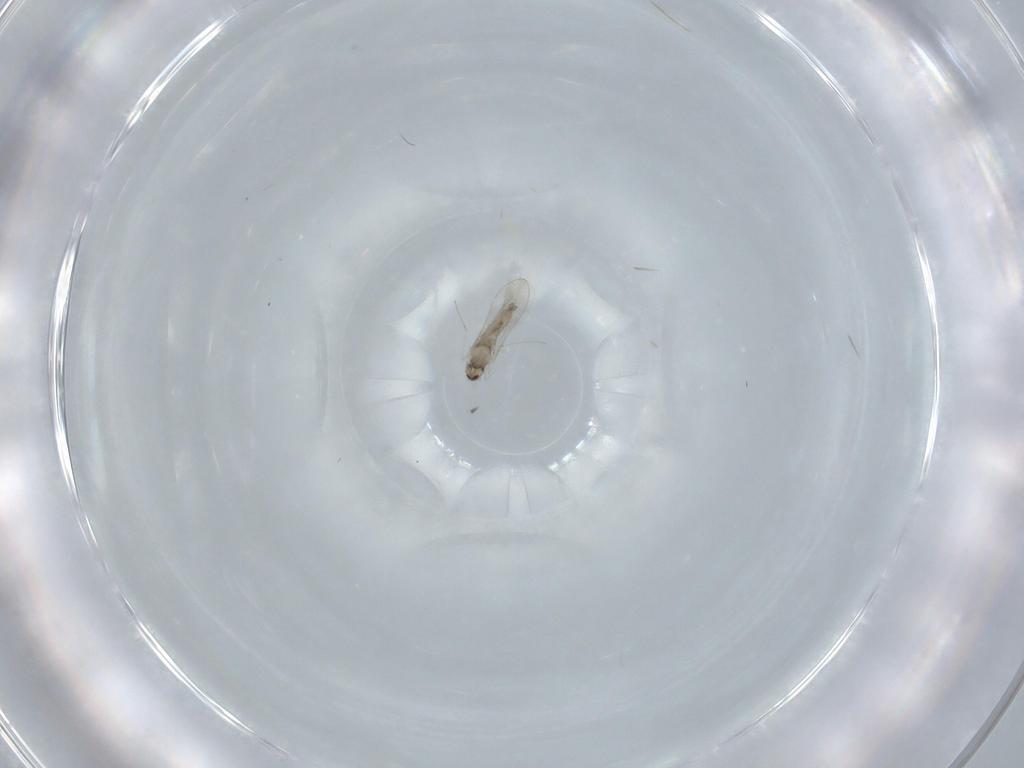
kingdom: Animalia
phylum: Arthropoda
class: Insecta
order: Diptera
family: Cecidomyiidae
